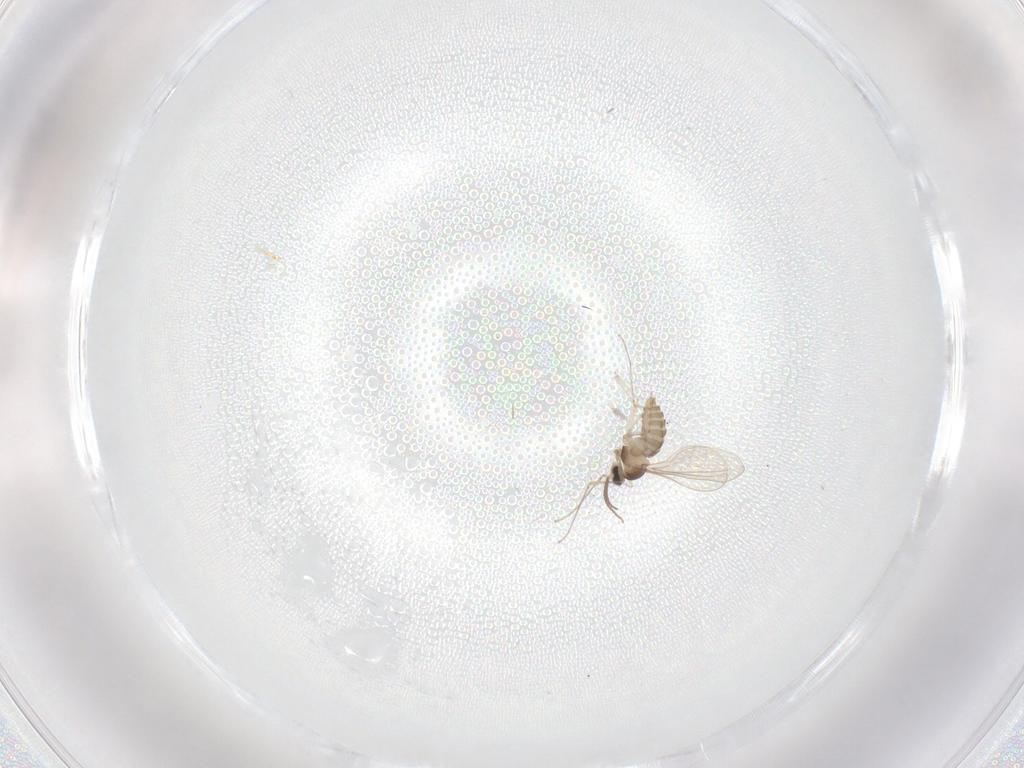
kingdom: Animalia
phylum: Arthropoda
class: Insecta
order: Diptera
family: Cecidomyiidae
